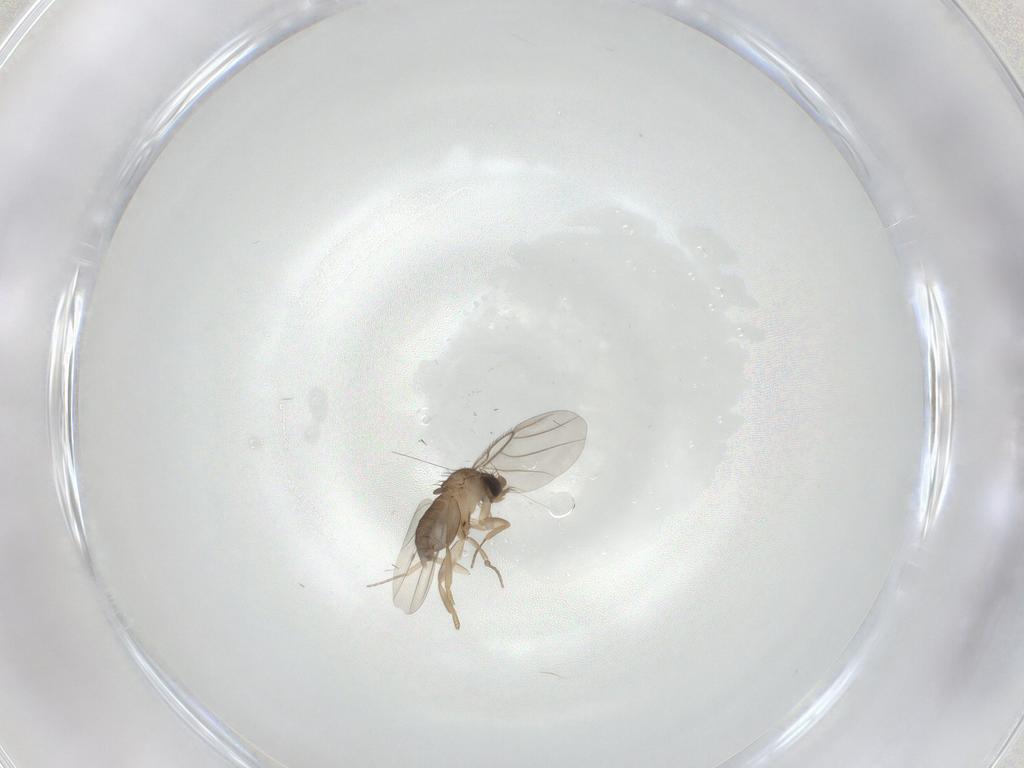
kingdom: Animalia
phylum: Arthropoda
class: Insecta
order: Diptera
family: Phoridae
